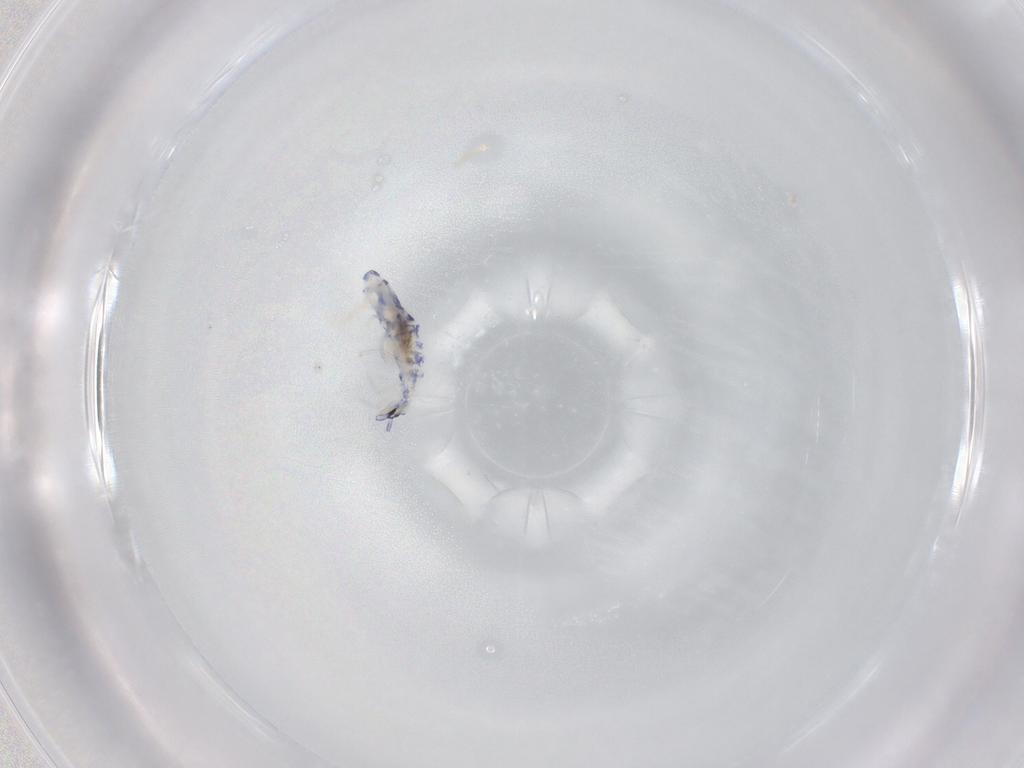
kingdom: Animalia
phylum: Arthropoda
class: Collembola
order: Entomobryomorpha
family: Entomobryidae
